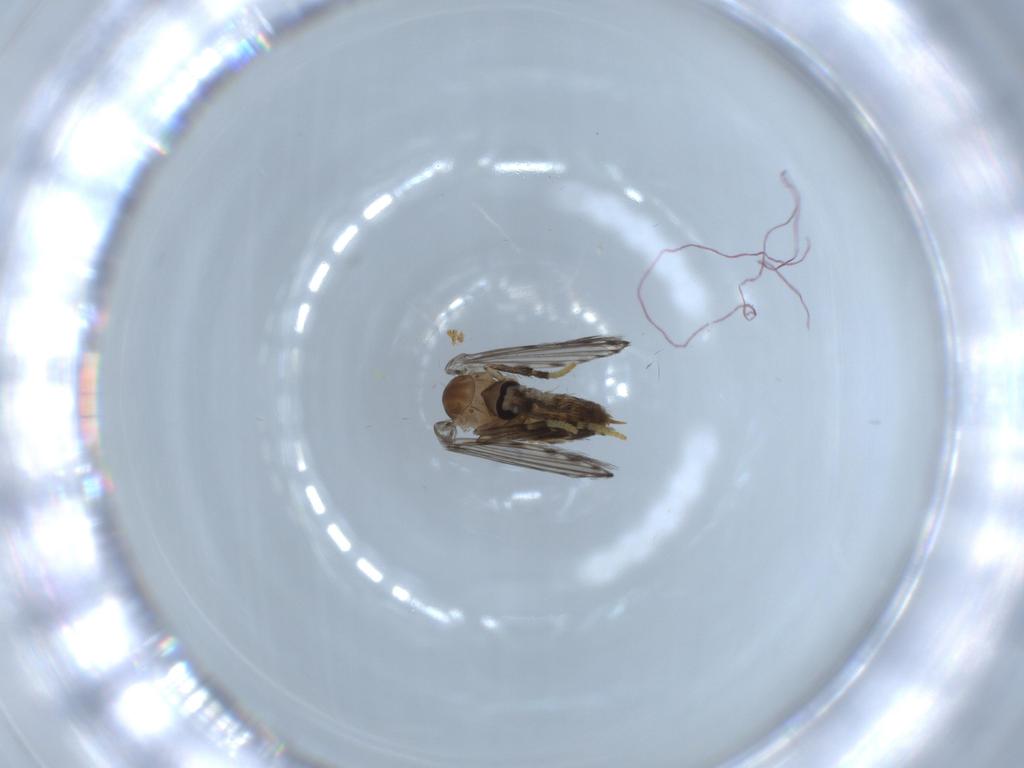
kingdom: Animalia
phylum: Arthropoda
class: Insecta
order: Diptera
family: Psychodidae
